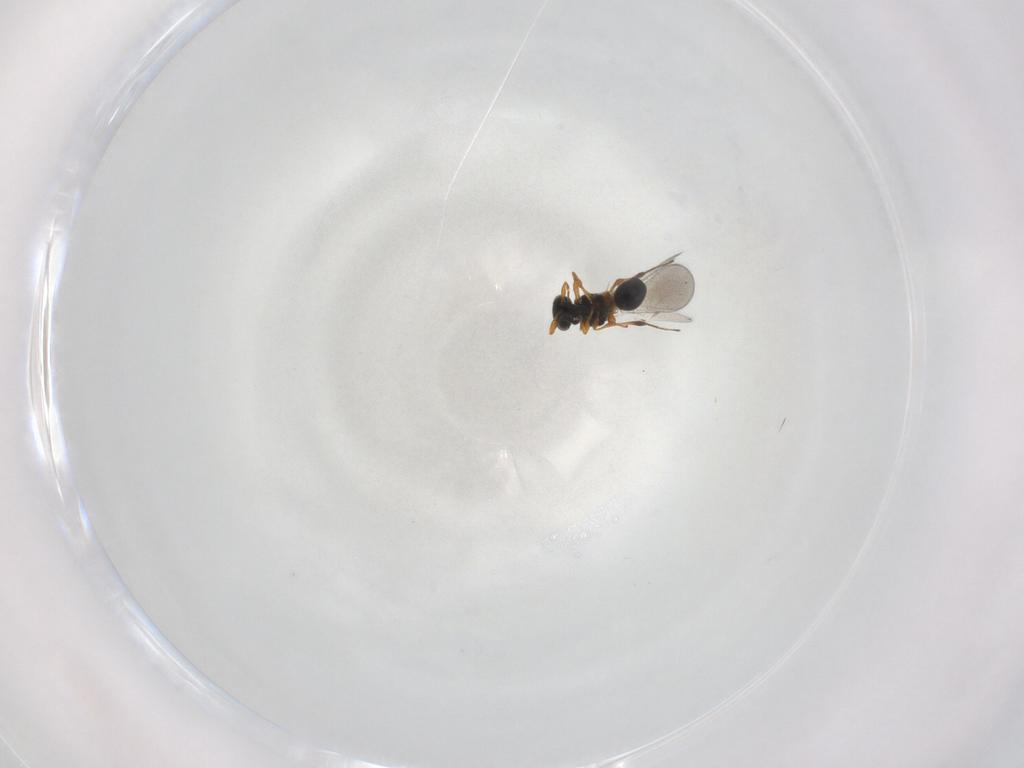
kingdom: Animalia
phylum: Arthropoda
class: Insecta
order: Hymenoptera
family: Platygastridae
